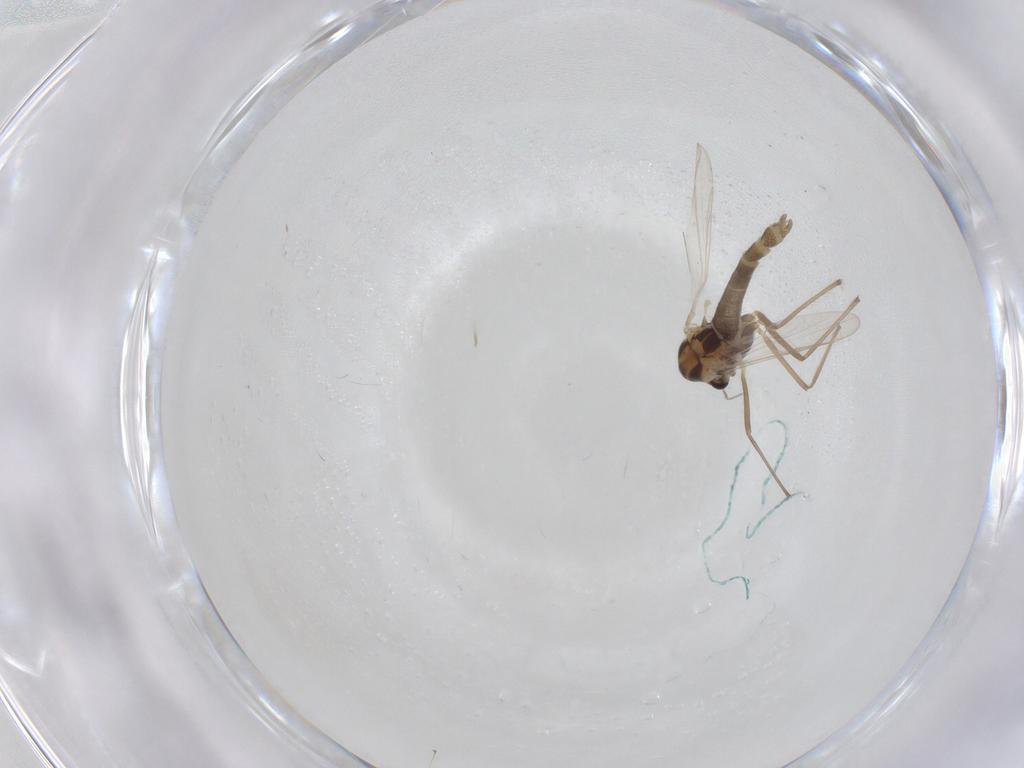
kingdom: Animalia
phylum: Arthropoda
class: Insecta
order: Diptera
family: Chironomidae
